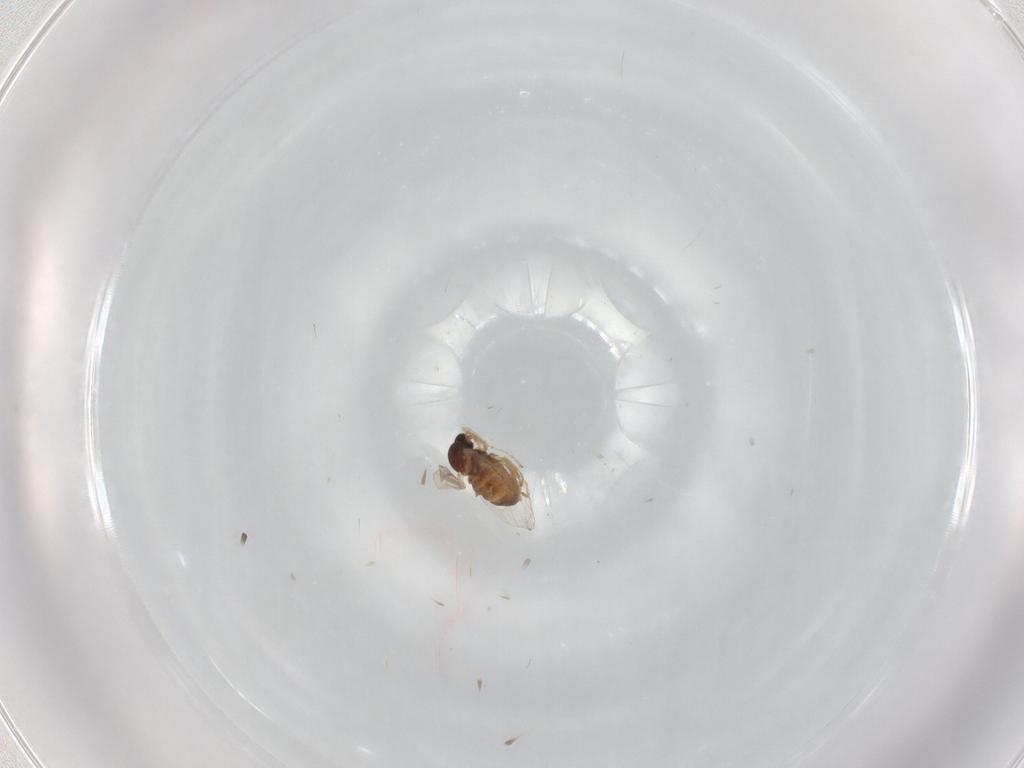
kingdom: Animalia
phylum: Arthropoda
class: Insecta
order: Diptera
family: Cecidomyiidae
